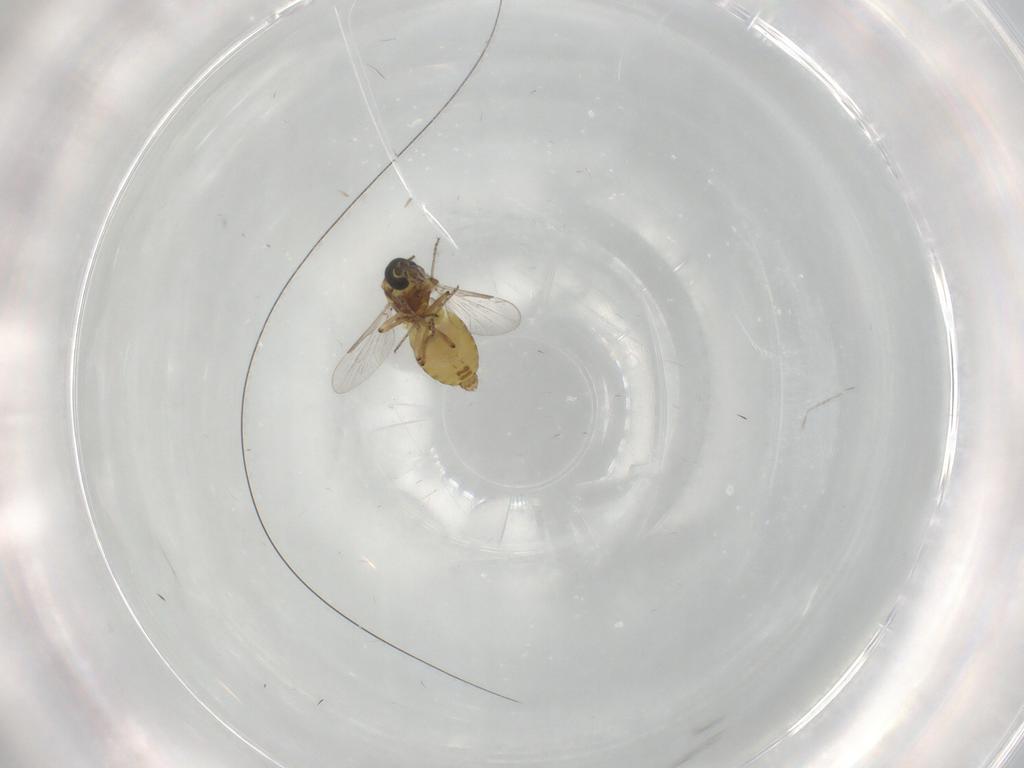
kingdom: Animalia
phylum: Arthropoda
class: Insecta
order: Diptera
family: Ceratopogonidae
